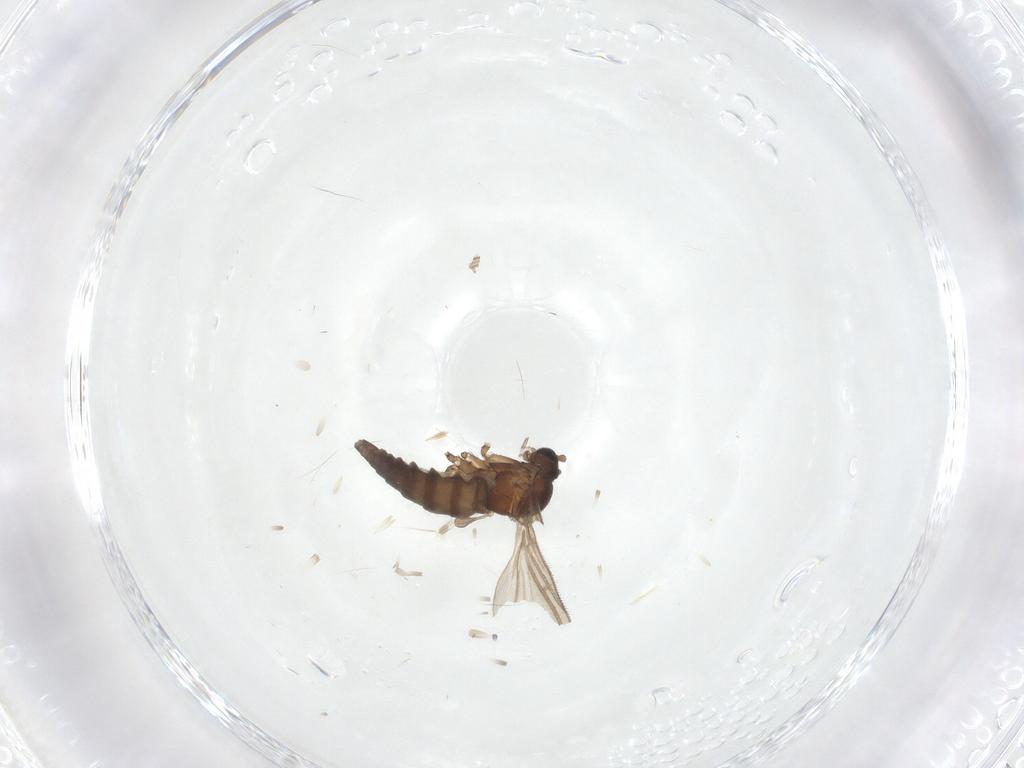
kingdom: Animalia
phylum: Arthropoda
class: Insecta
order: Diptera
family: Sciaridae
